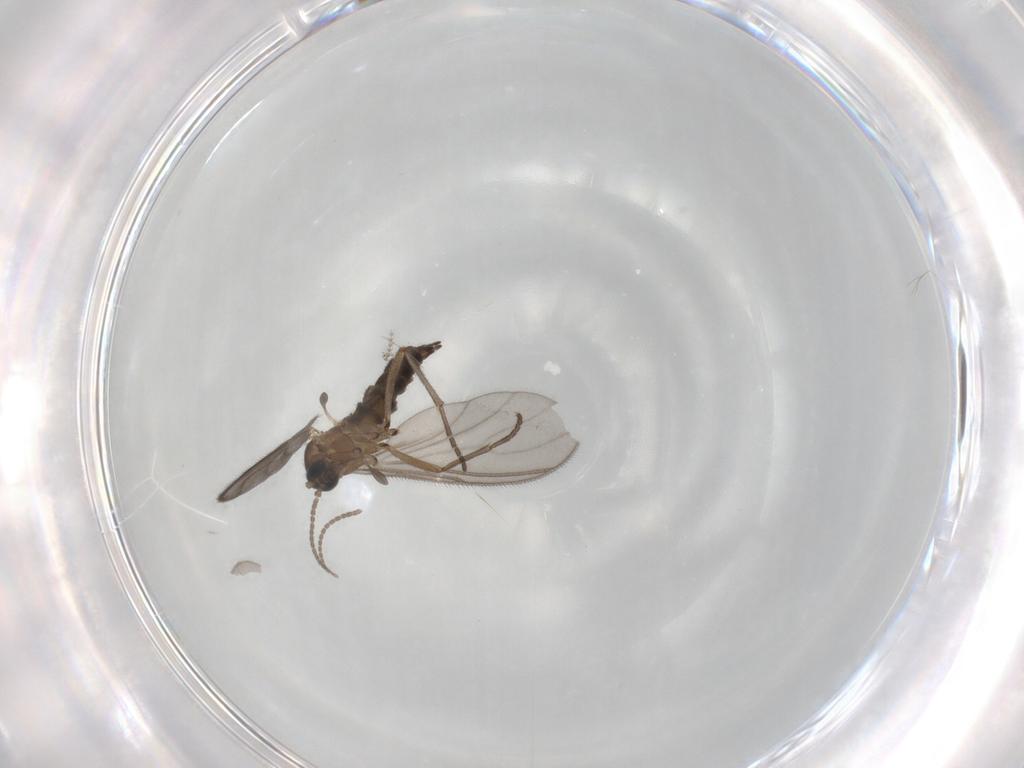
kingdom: Animalia
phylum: Arthropoda
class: Insecta
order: Diptera
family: Sciaridae
